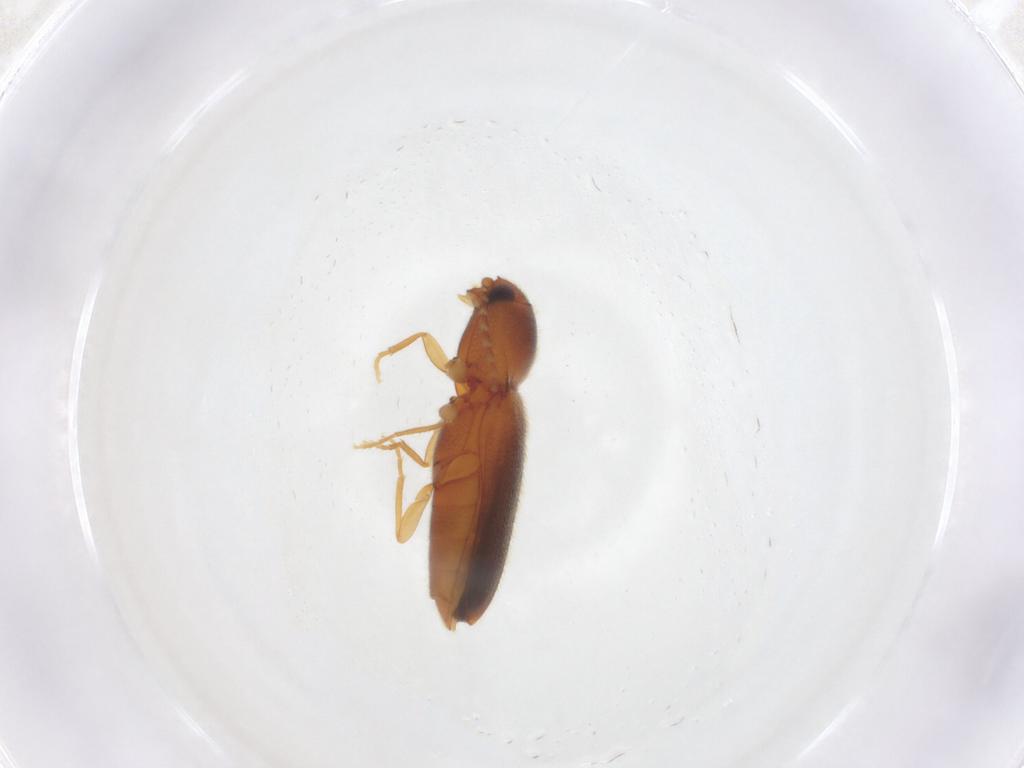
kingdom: Animalia
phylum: Arthropoda
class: Insecta
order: Coleoptera
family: Elateridae
